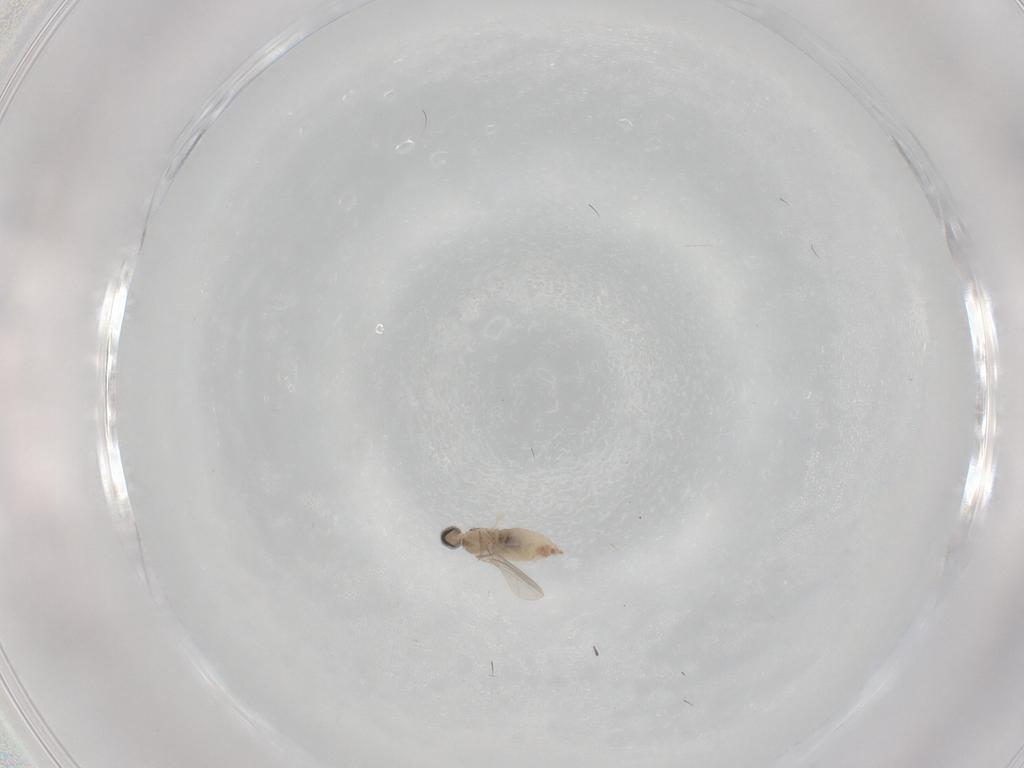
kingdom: Animalia
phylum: Arthropoda
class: Insecta
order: Diptera
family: Cecidomyiidae
